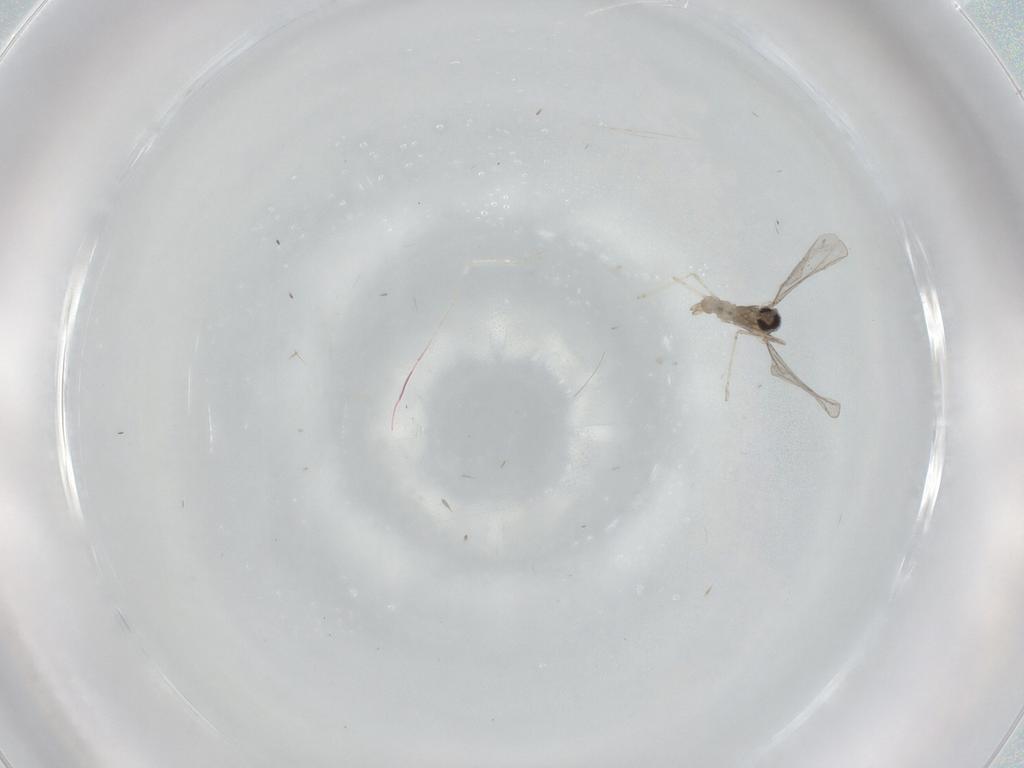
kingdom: Animalia
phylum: Arthropoda
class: Insecta
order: Diptera
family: Cecidomyiidae
